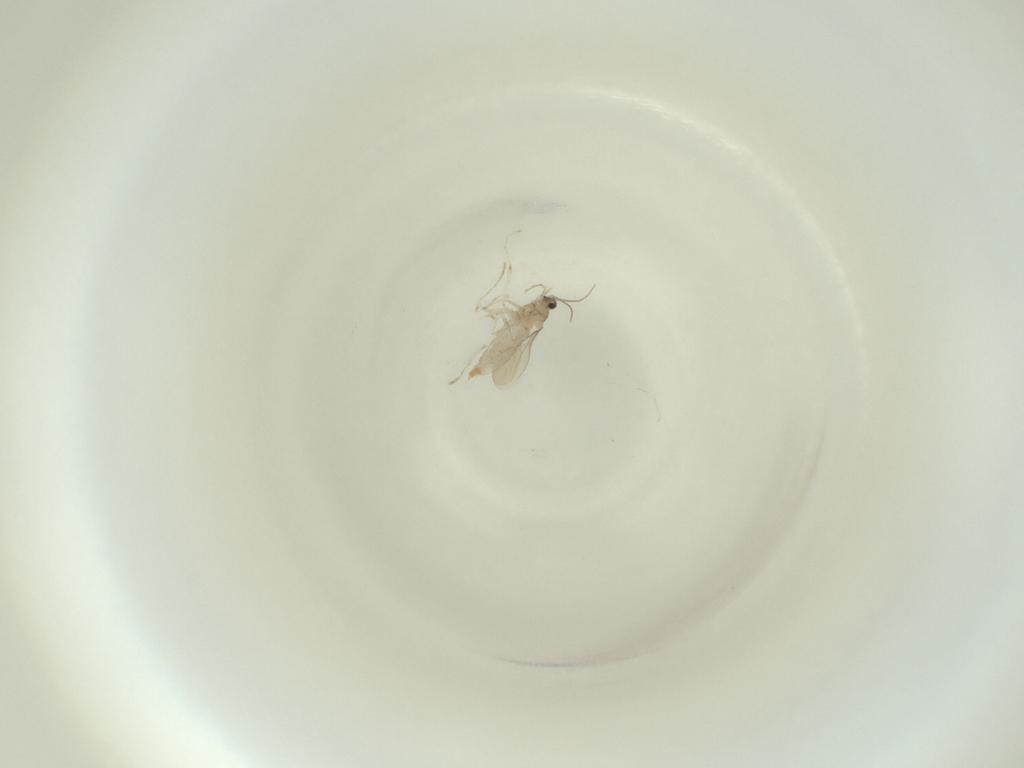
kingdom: Animalia
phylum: Arthropoda
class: Insecta
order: Diptera
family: Cecidomyiidae
